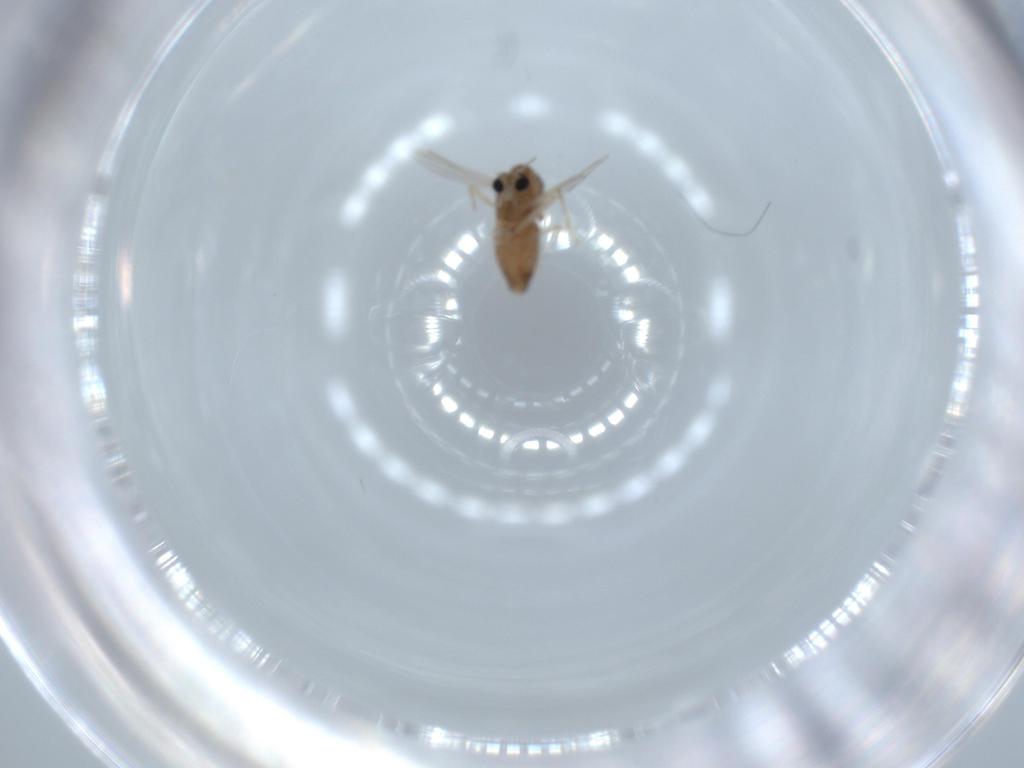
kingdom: Animalia
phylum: Arthropoda
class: Insecta
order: Diptera
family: Chironomidae
